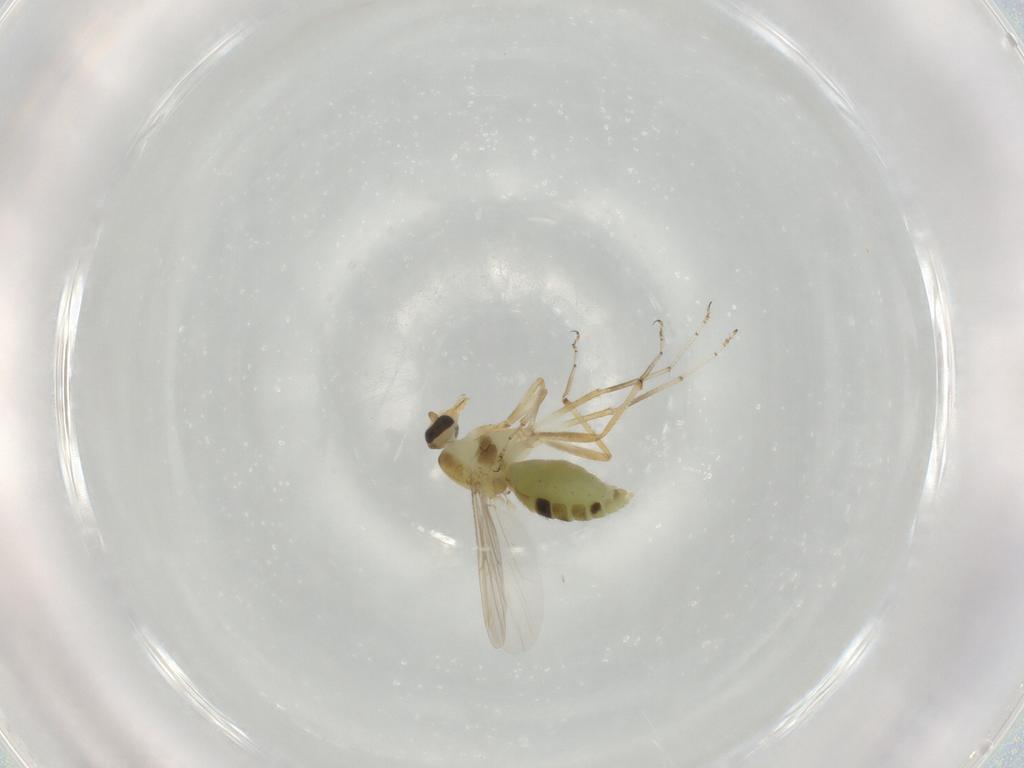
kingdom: Animalia
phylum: Arthropoda
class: Insecta
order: Diptera
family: Ceratopogonidae
